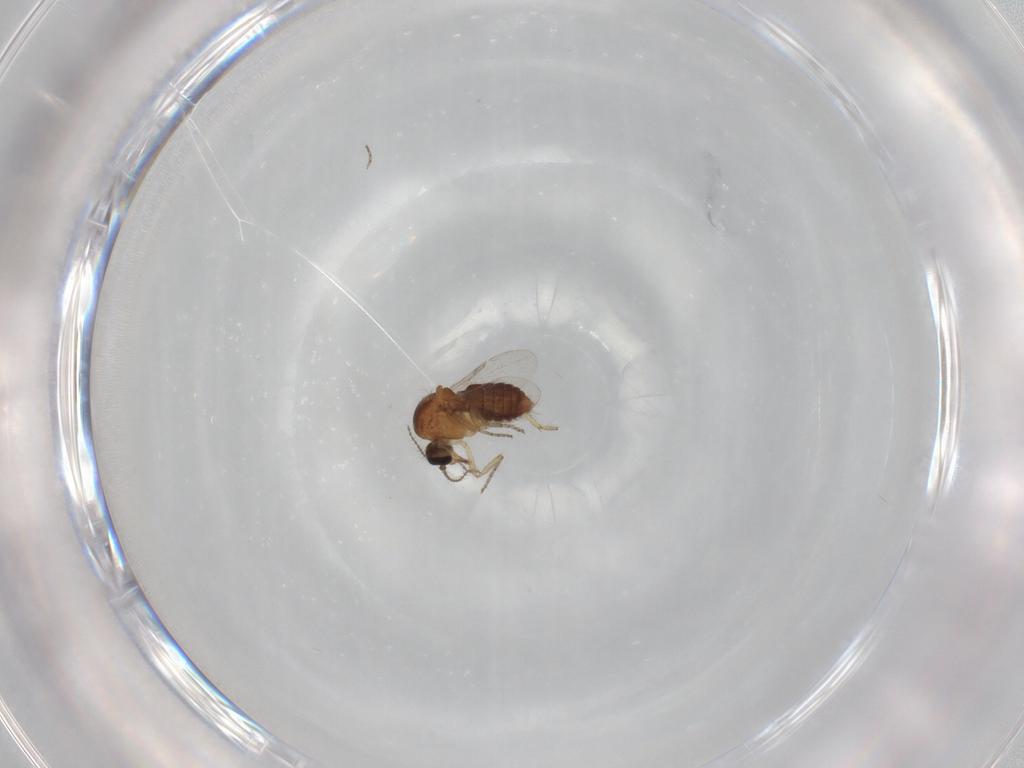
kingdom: Animalia
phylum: Arthropoda
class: Insecta
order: Diptera
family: Ceratopogonidae
